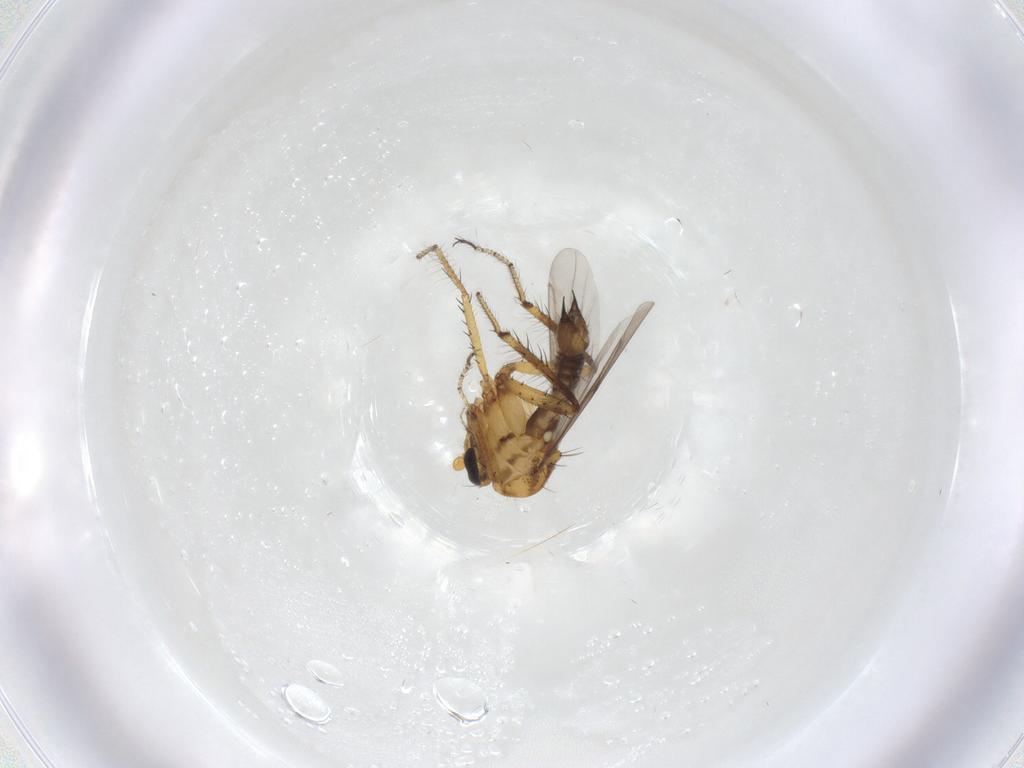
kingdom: Animalia
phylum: Arthropoda
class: Insecta
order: Diptera
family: Ceratopogonidae
